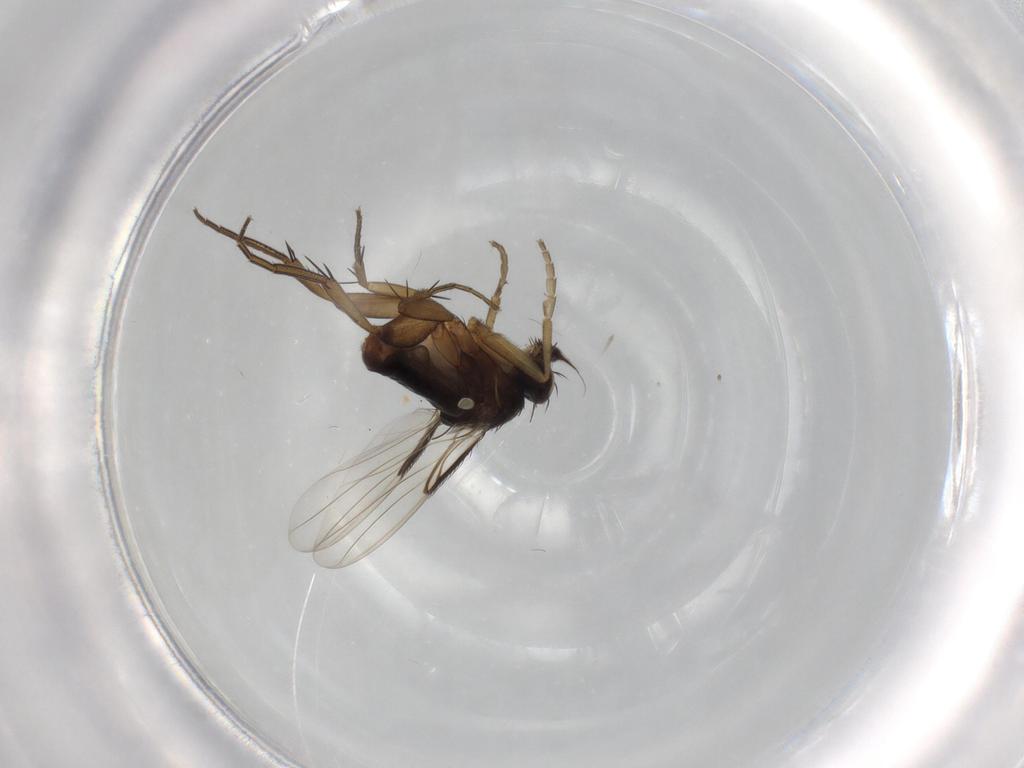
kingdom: Animalia
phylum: Arthropoda
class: Insecta
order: Diptera
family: Phoridae
